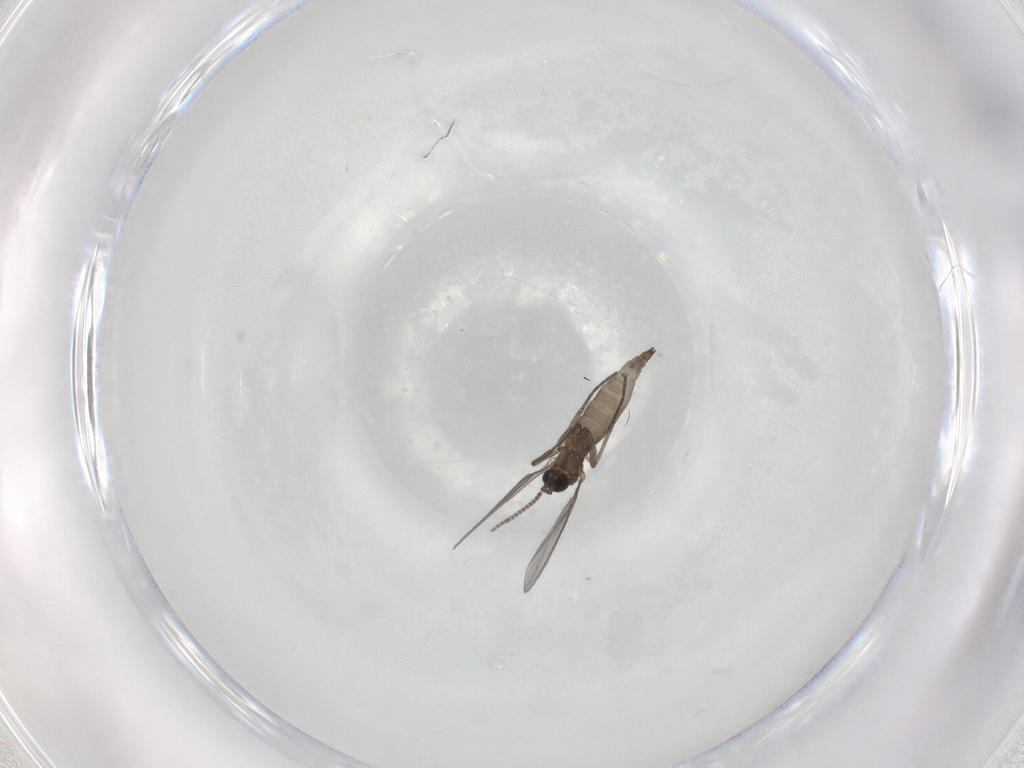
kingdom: Animalia
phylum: Arthropoda
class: Insecta
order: Diptera
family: Sciaridae
